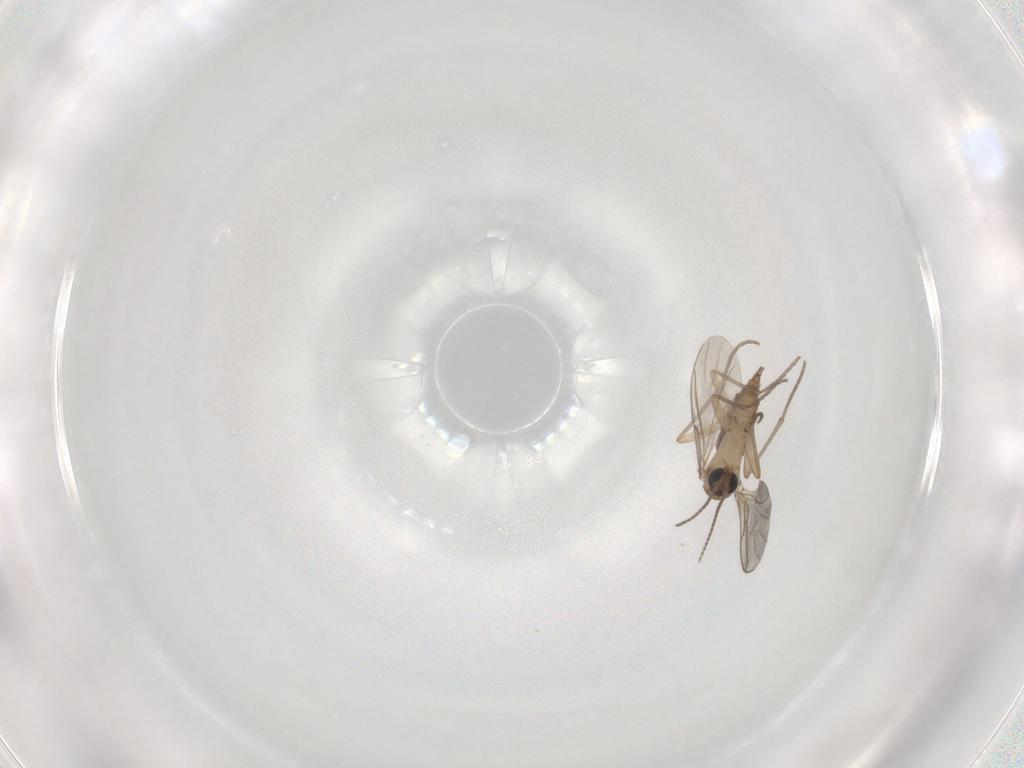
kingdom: Animalia
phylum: Arthropoda
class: Insecta
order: Diptera
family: Sciaridae
